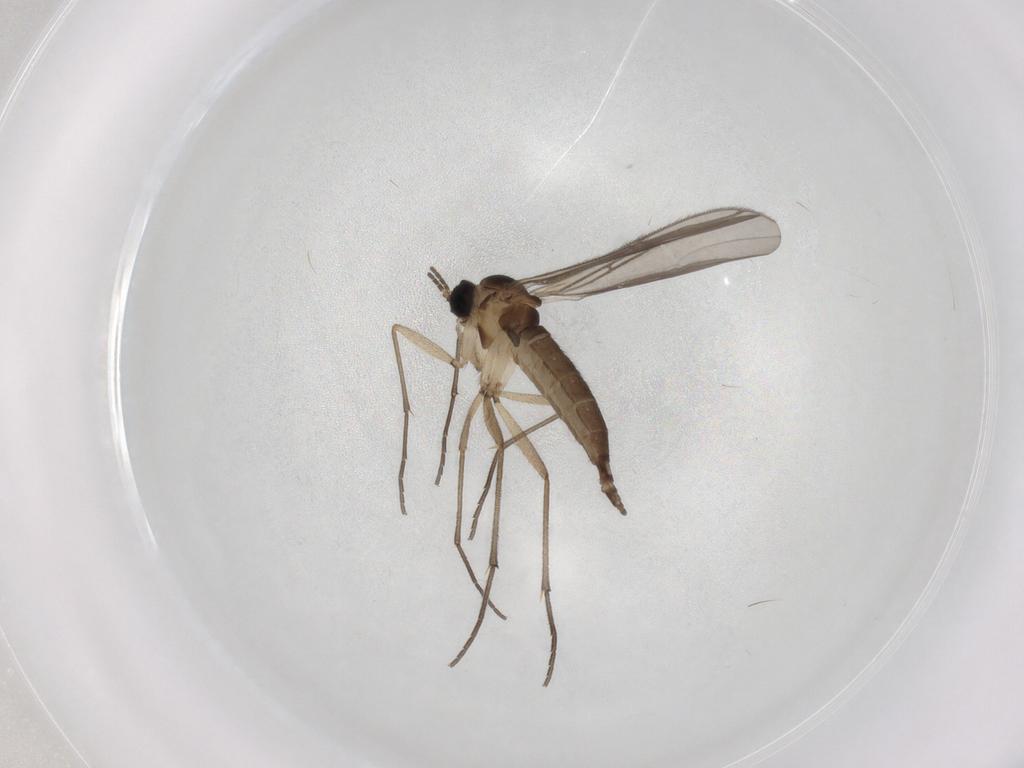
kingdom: Animalia
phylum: Arthropoda
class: Insecta
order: Diptera
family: Sciaridae
